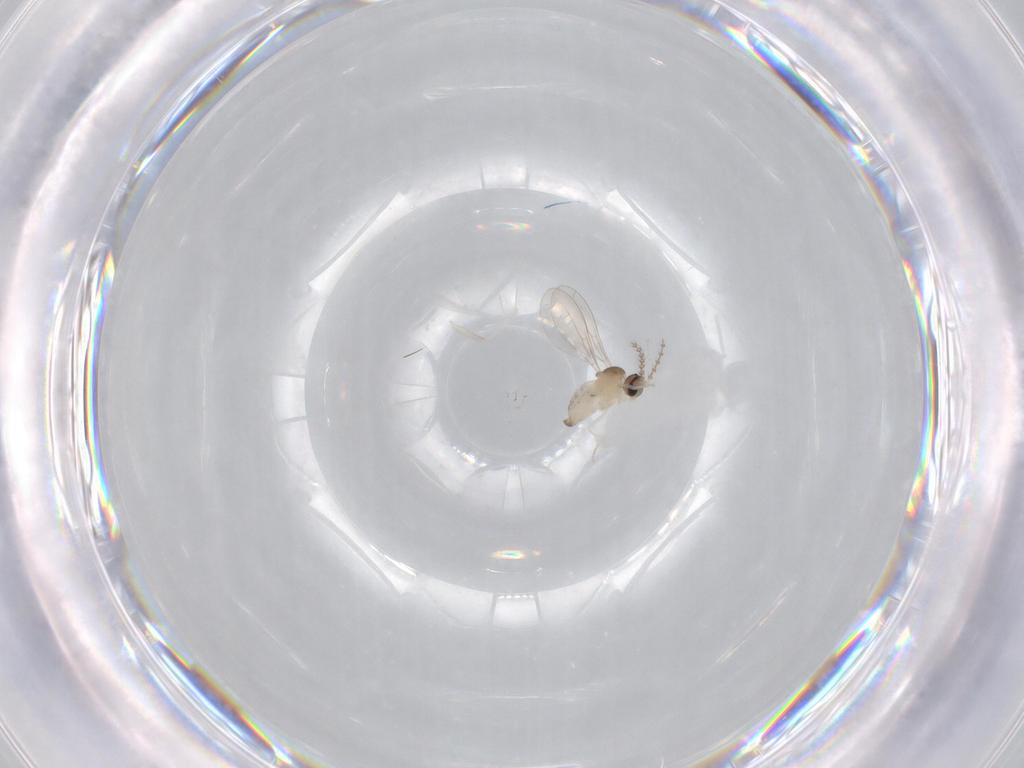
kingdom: Animalia
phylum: Arthropoda
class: Insecta
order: Diptera
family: Cecidomyiidae
